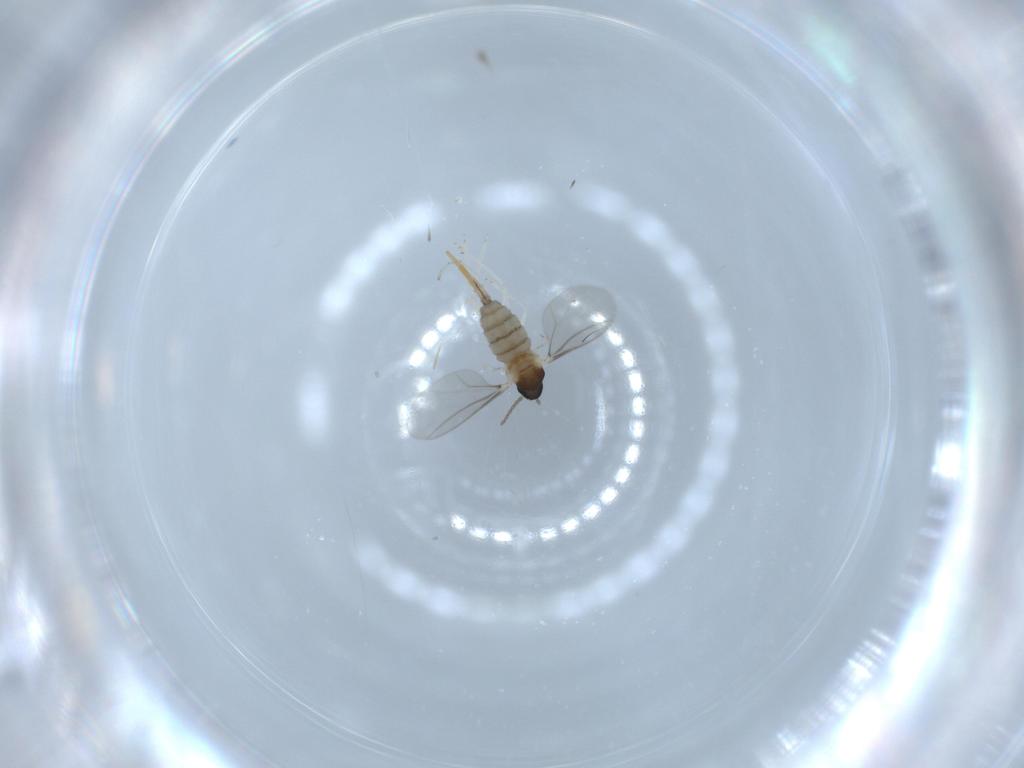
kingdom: Animalia
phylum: Arthropoda
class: Insecta
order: Diptera
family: Cecidomyiidae
